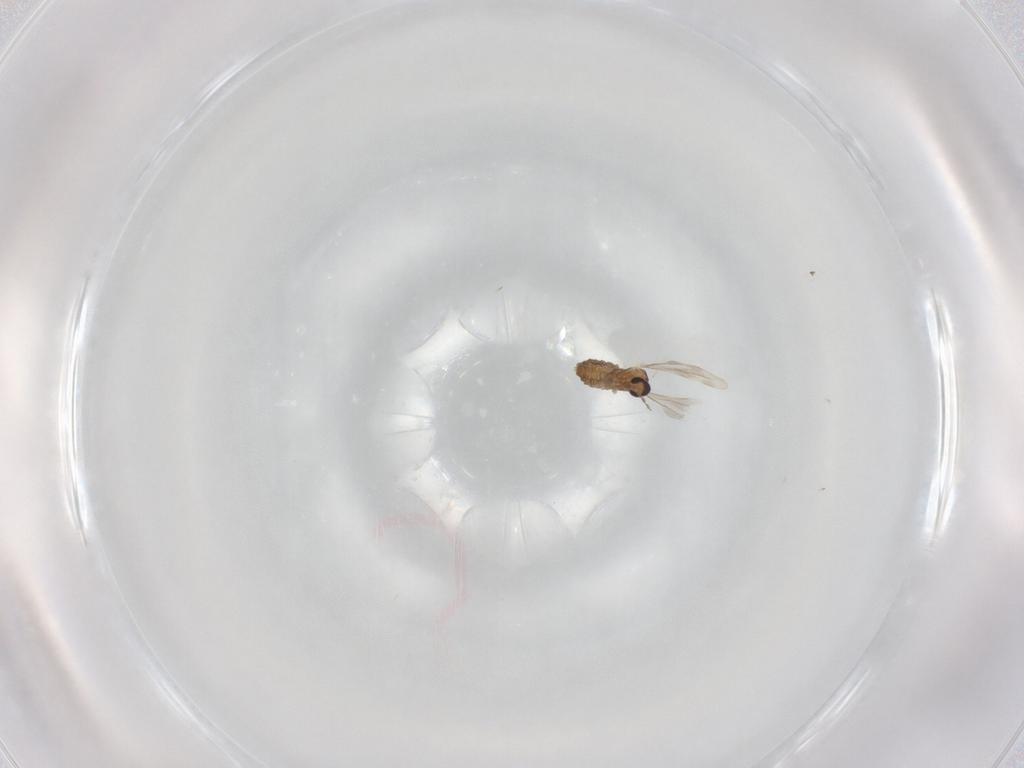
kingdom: Animalia
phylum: Arthropoda
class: Insecta
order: Diptera
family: Cecidomyiidae
